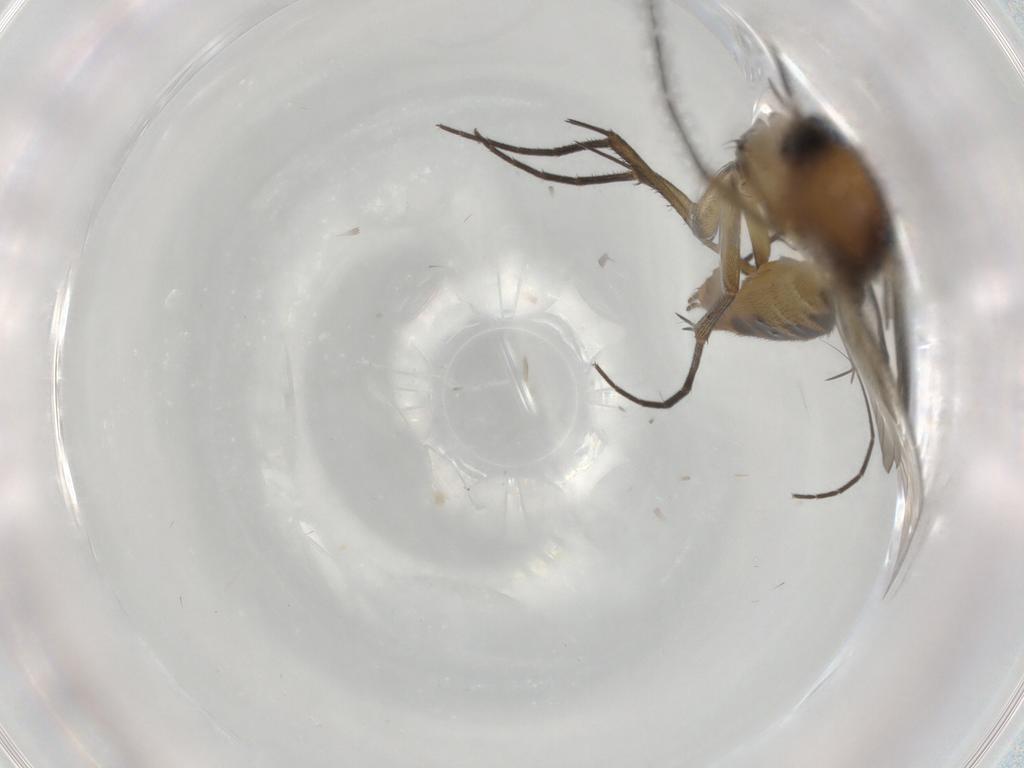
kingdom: Animalia
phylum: Arthropoda
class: Insecta
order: Diptera
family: Mycetophilidae
